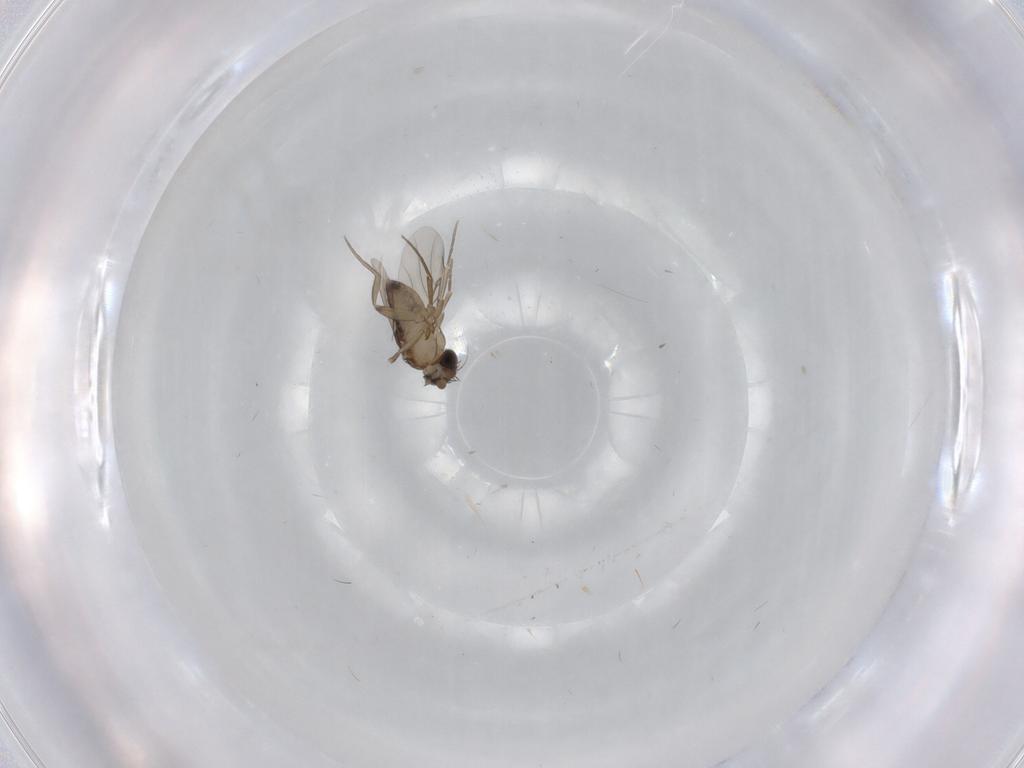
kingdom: Animalia
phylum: Arthropoda
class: Insecta
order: Diptera
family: Phoridae
